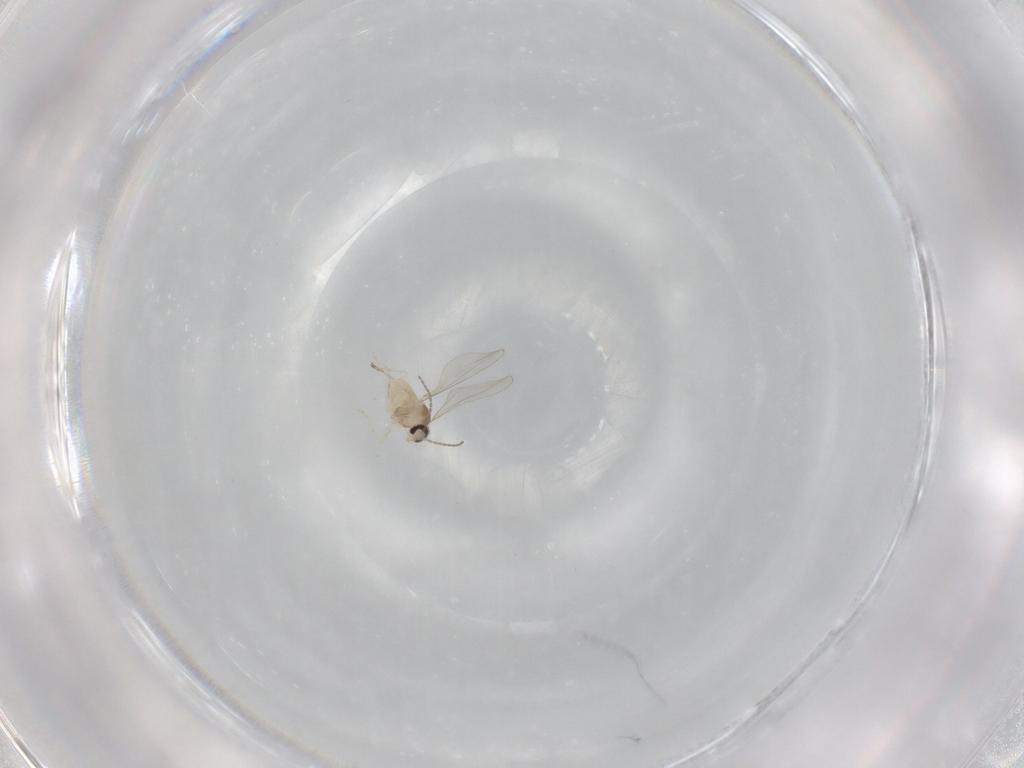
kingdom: Animalia
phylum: Arthropoda
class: Insecta
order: Diptera
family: Cecidomyiidae
